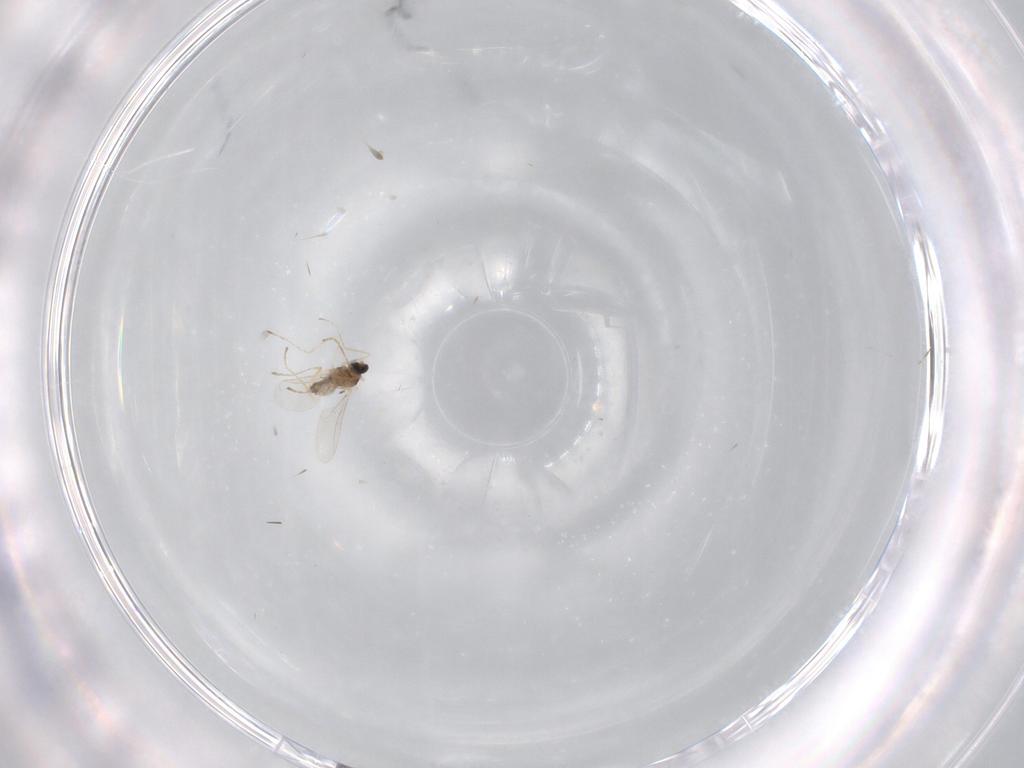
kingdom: Animalia
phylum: Arthropoda
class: Insecta
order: Diptera
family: Cecidomyiidae
